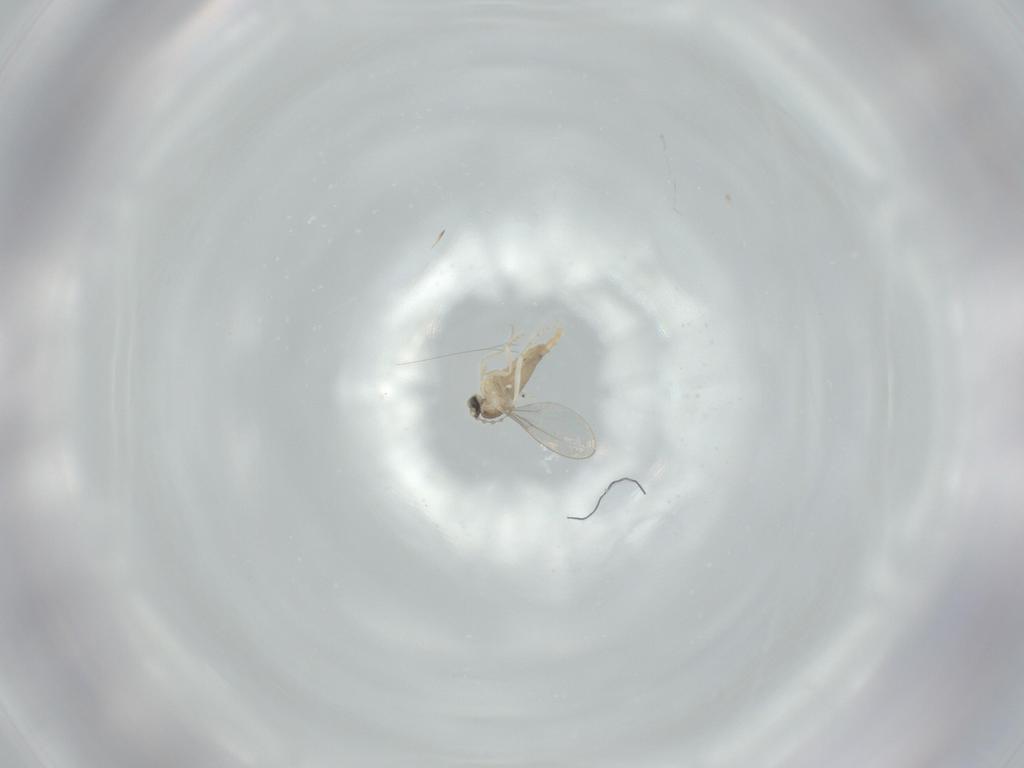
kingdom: Animalia
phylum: Arthropoda
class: Insecta
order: Diptera
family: Cecidomyiidae
